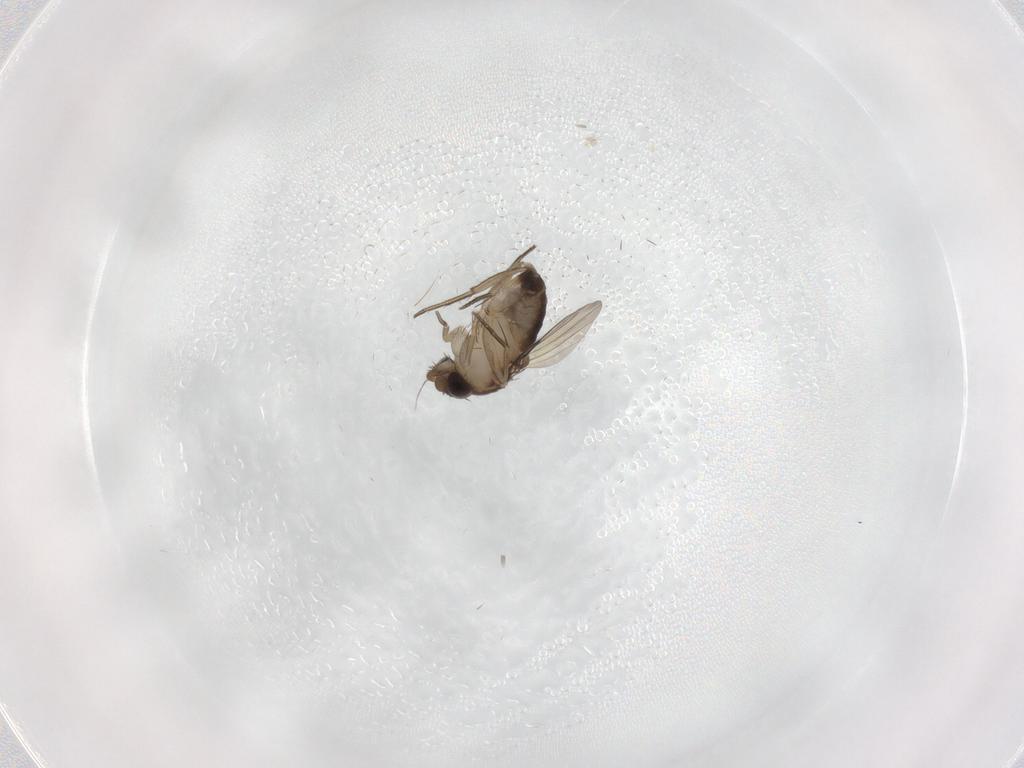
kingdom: Animalia
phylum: Arthropoda
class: Insecta
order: Diptera
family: Phoridae
